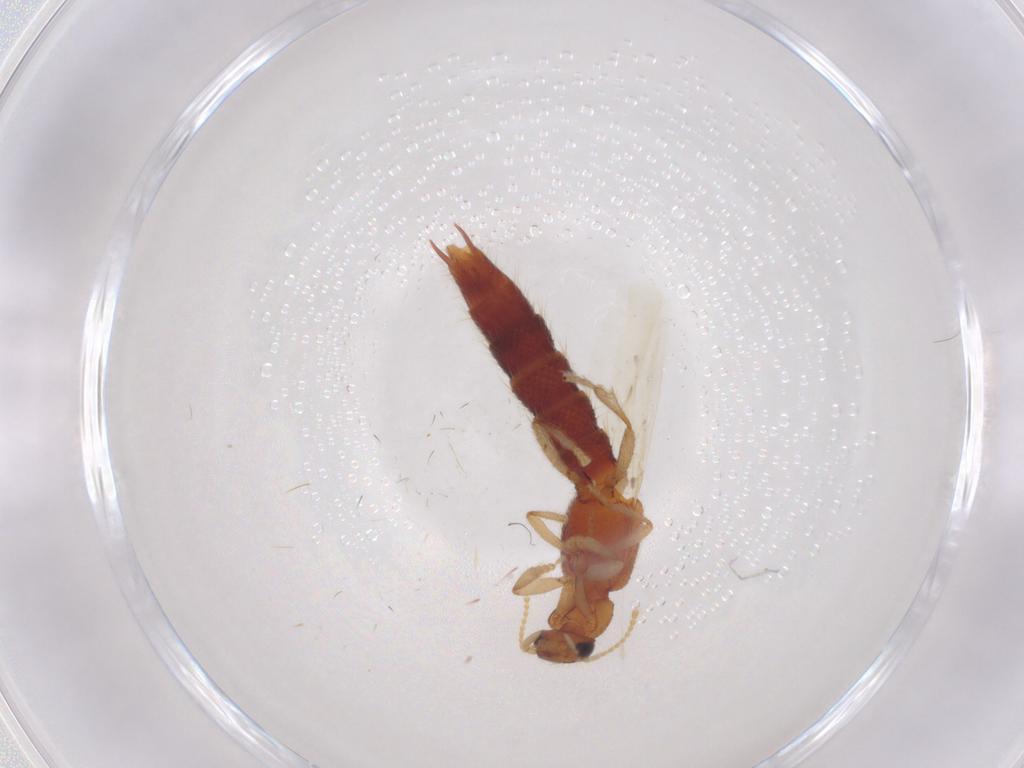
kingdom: Animalia
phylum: Arthropoda
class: Insecta
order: Coleoptera
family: Staphylinidae
